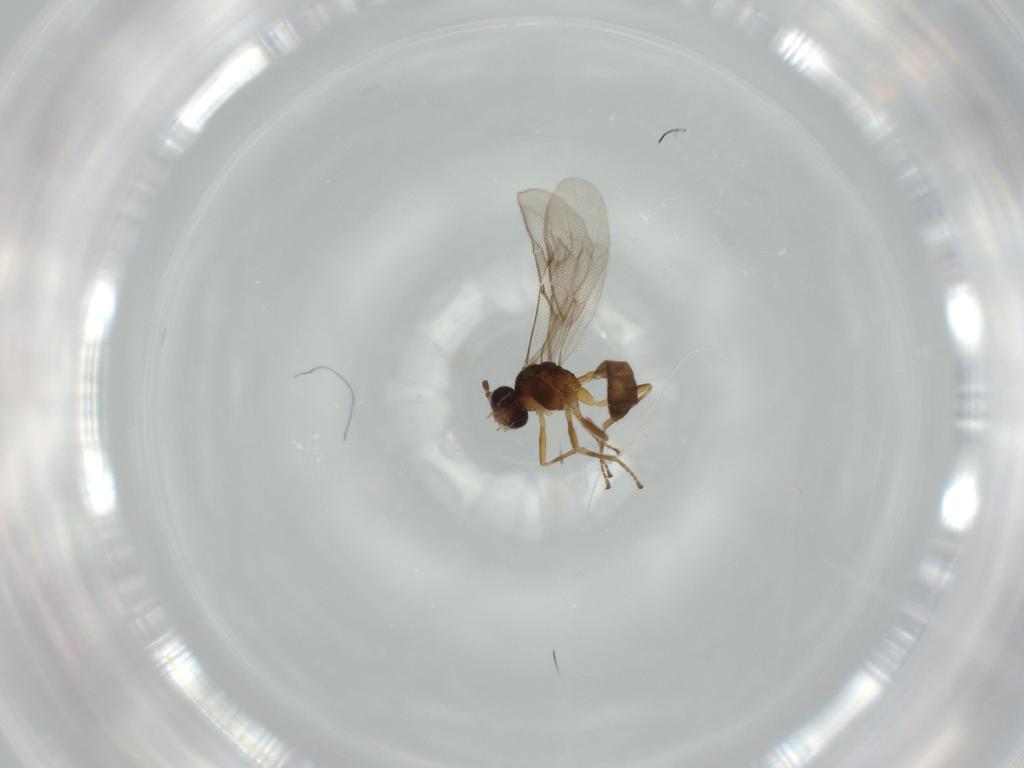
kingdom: Animalia
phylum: Arthropoda
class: Insecta
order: Hymenoptera
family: Braconidae
